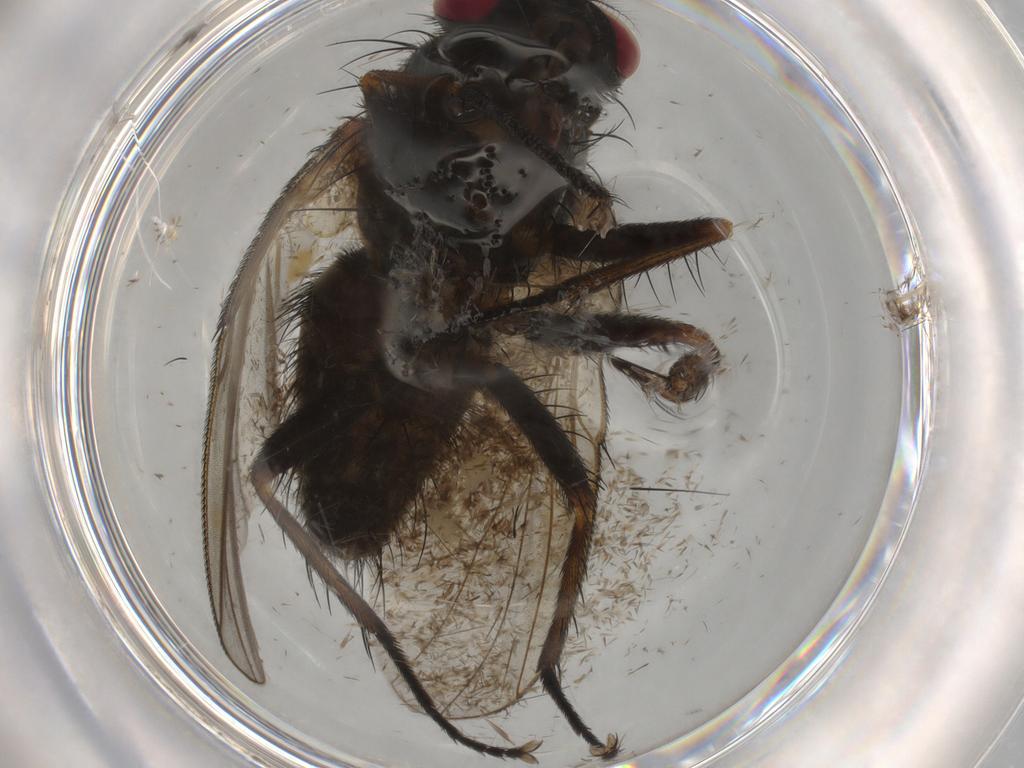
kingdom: Animalia
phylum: Arthropoda
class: Insecta
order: Diptera
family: Muscidae
